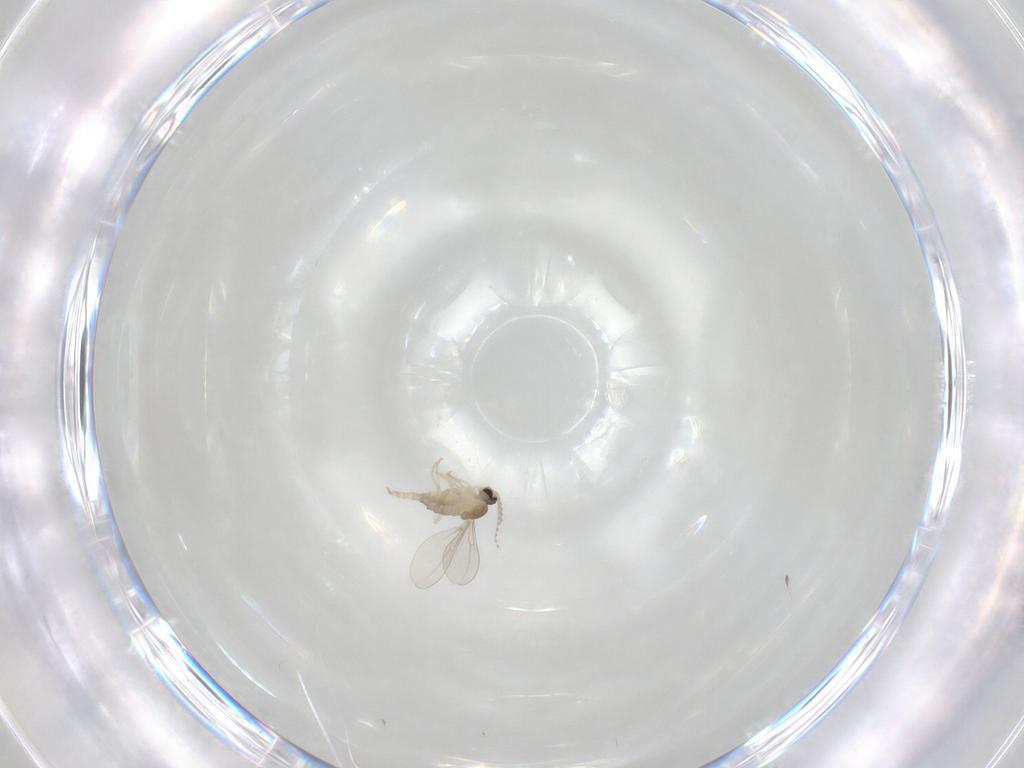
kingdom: Animalia
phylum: Arthropoda
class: Insecta
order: Diptera
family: Cecidomyiidae
